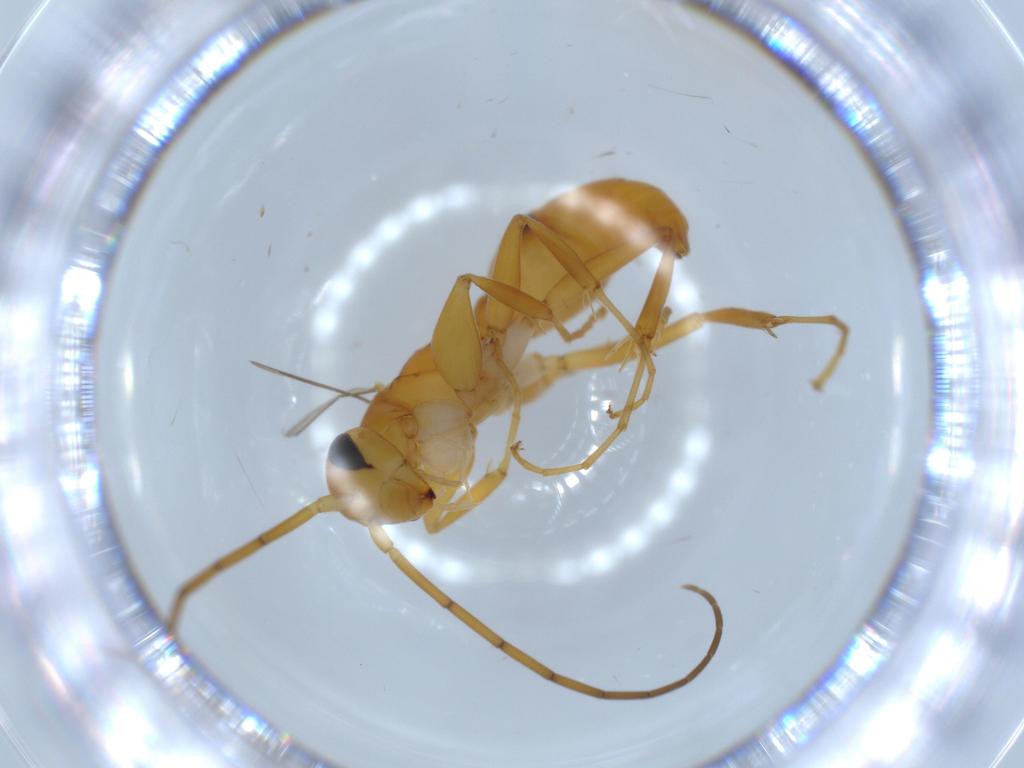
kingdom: Animalia
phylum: Arthropoda
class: Insecta
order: Hymenoptera
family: Rhopalosomatidae
